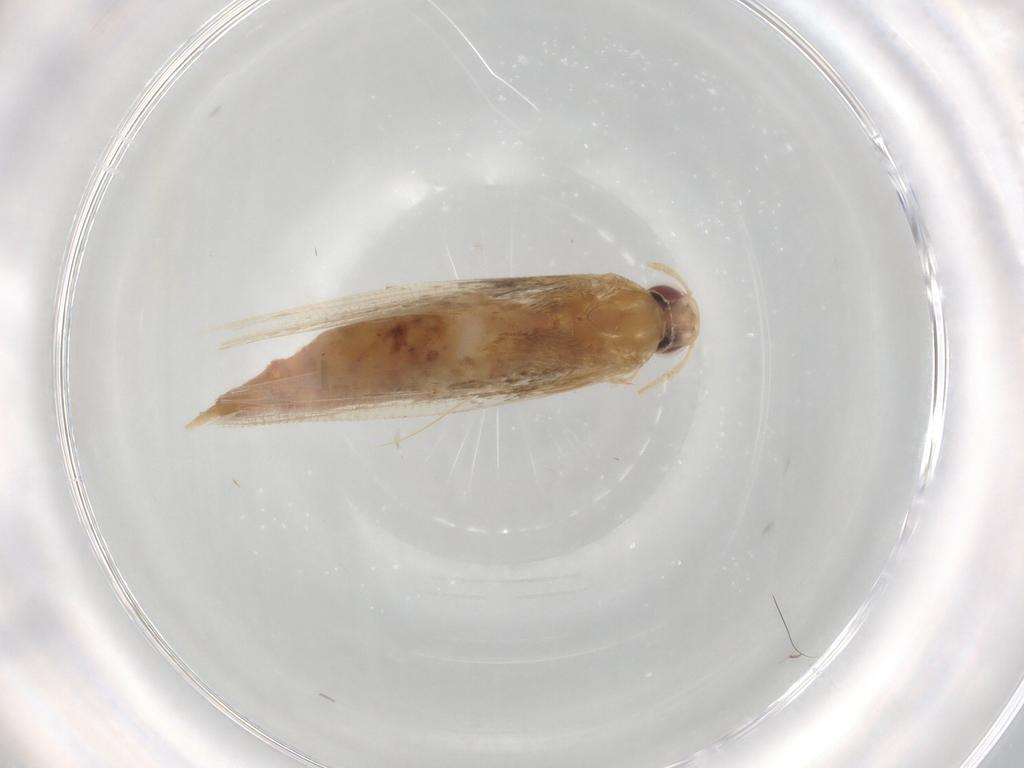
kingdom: Animalia
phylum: Arthropoda
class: Insecta
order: Lepidoptera
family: Cosmopterigidae
